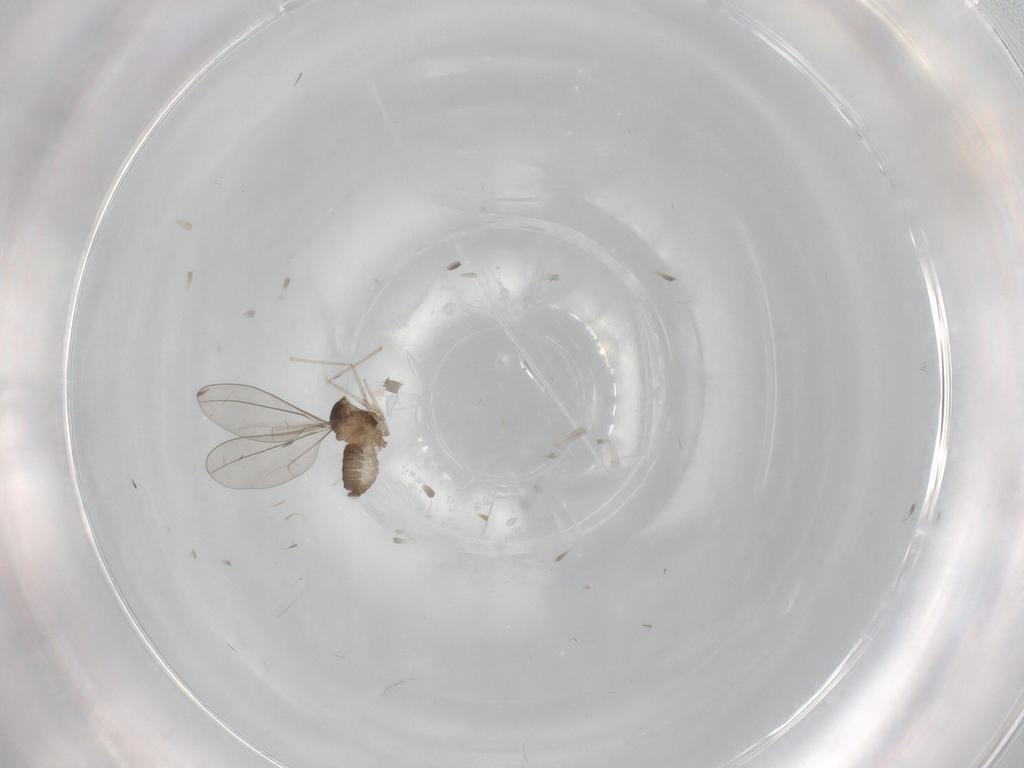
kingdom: Animalia
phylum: Arthropoda
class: Insecta
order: Diptera
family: Cecidomyiidae
